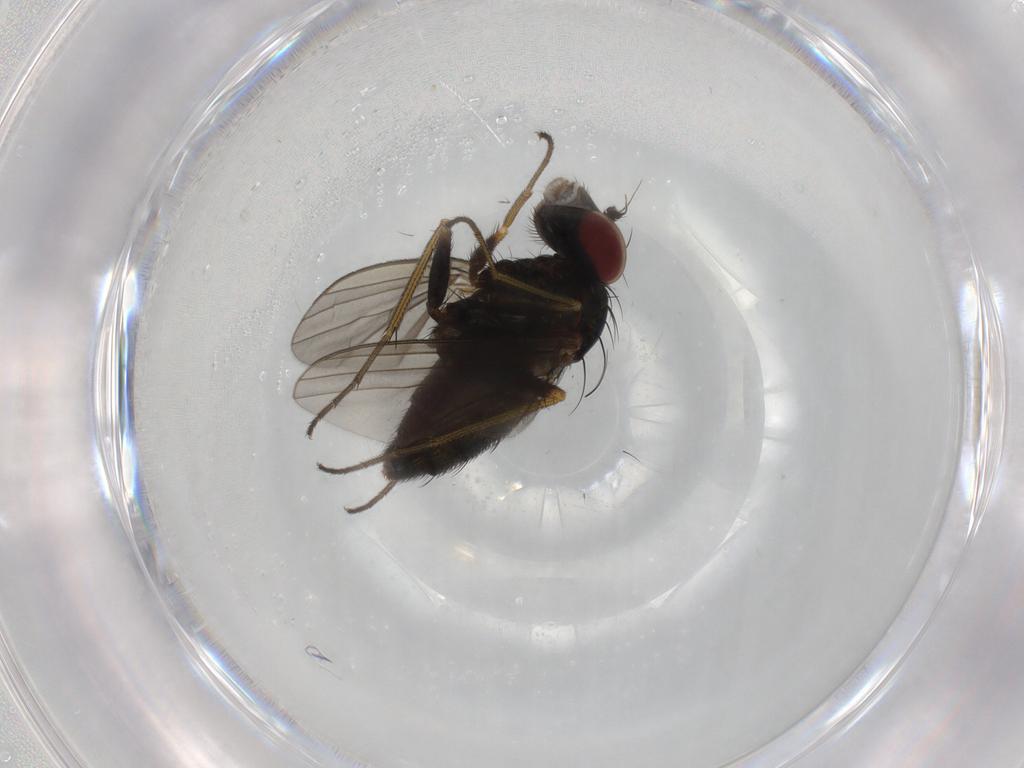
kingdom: Animalia
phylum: Arthropoda
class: Insecta
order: Diptera
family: Dolichopodidae
